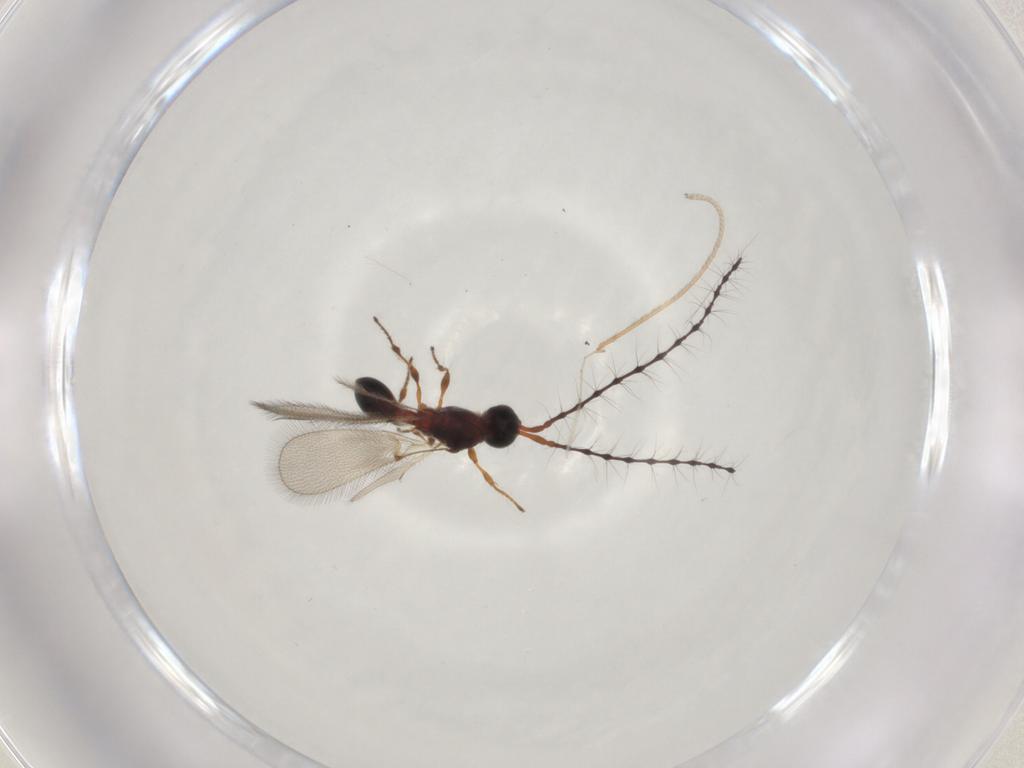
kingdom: Animalia
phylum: Arthropoda
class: Insecta
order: Hymenoptera
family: Diapriidae
